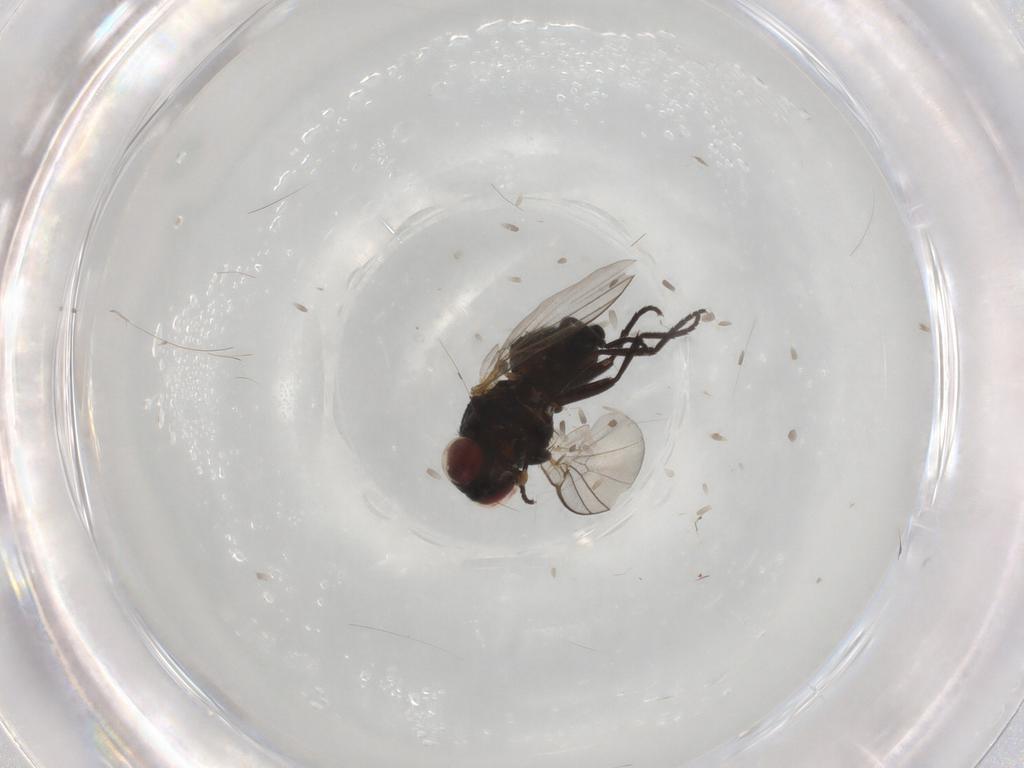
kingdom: Animalia
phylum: Arthropoda
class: Insecta
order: Diptera
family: Agromyzidae
